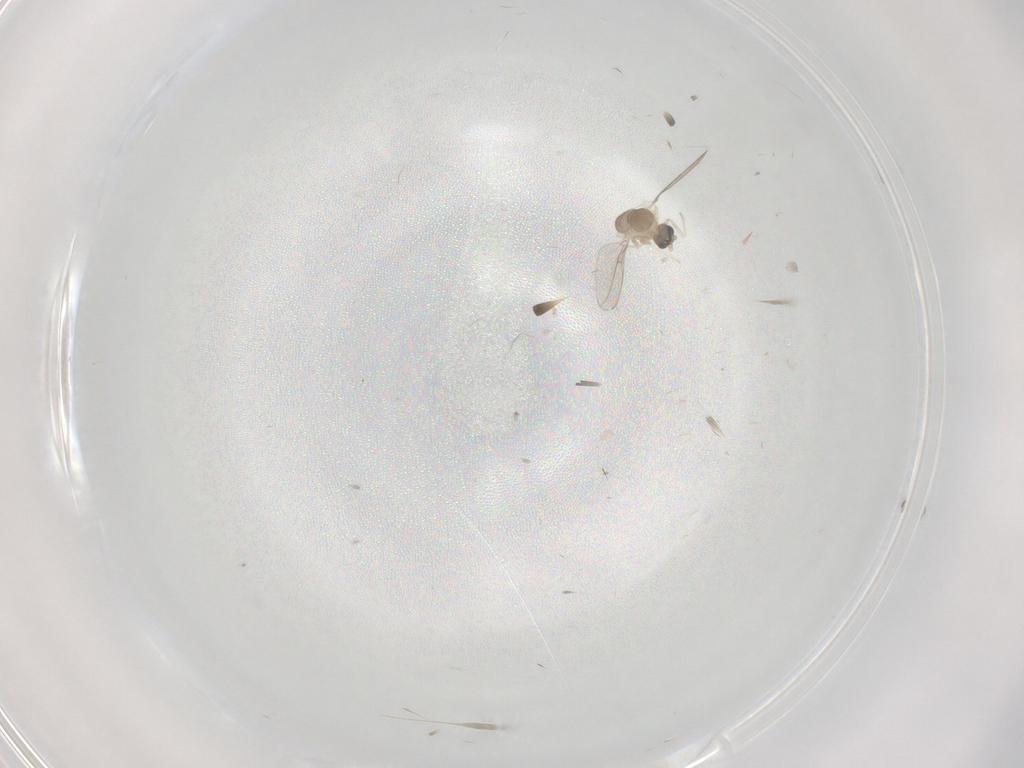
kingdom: Animalia
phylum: Arthropoda
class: Insecta
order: Diptera
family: Cecidomyiidae
